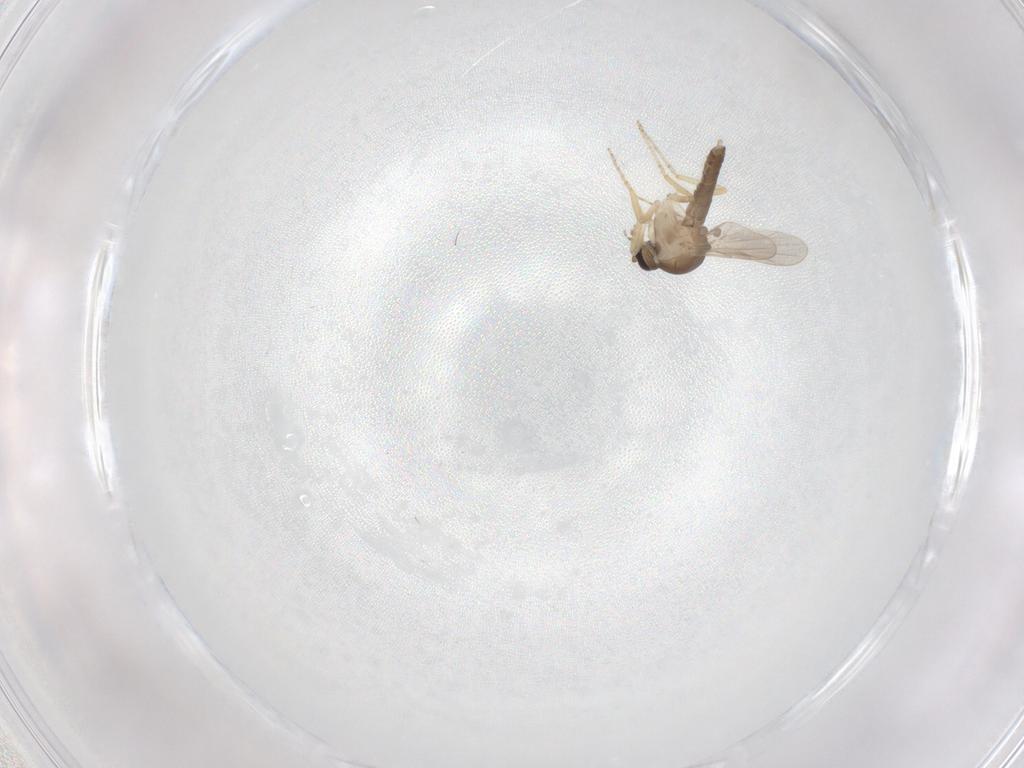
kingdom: Animalia
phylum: Arthropoda
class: Insecta
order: Diptera
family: Ceratopogonidae
